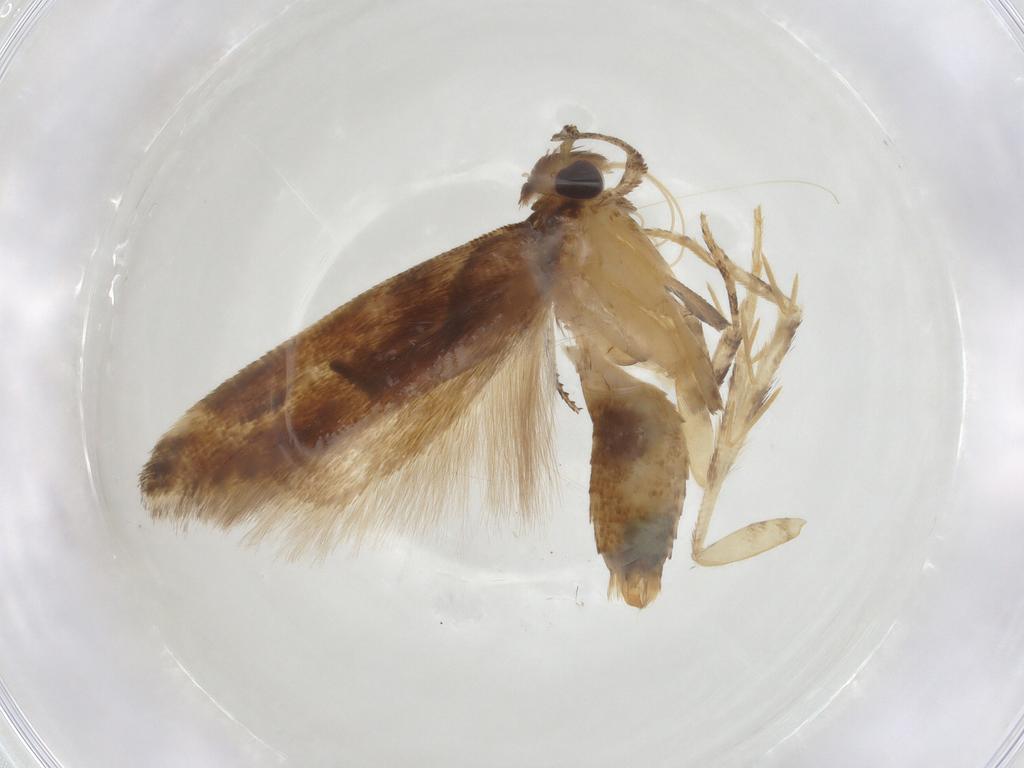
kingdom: Animalia
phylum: Arthropoda
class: Insecta
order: Lepidoptera
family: Gelechiidae
